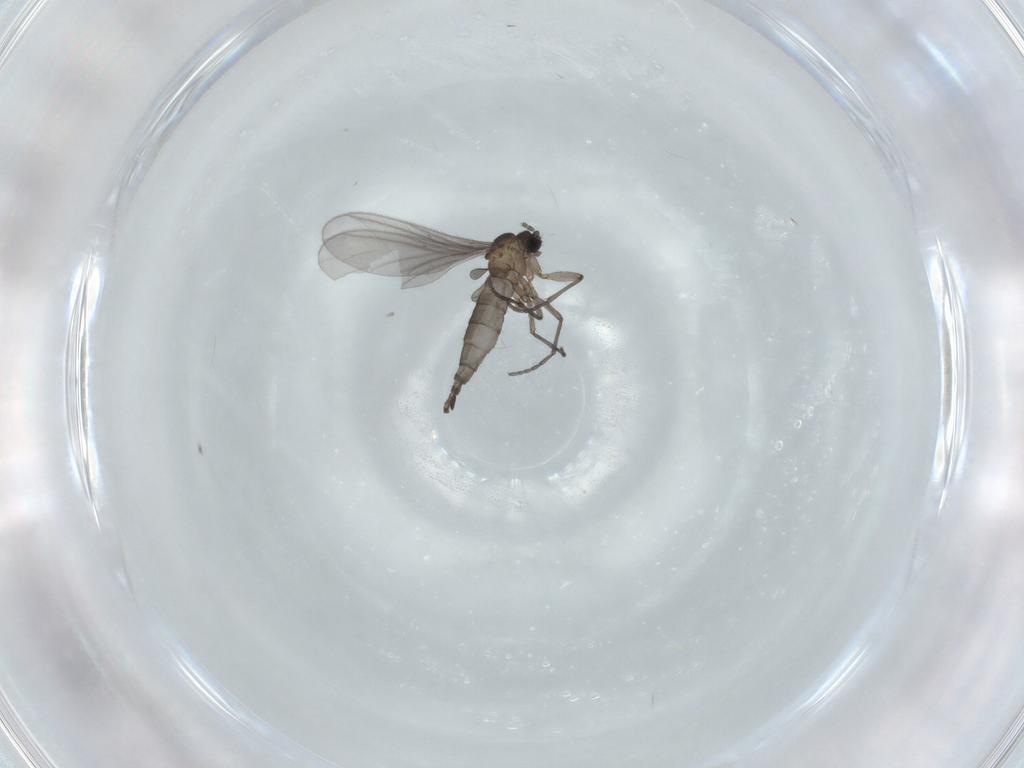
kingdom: Animalia
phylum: Arthropoda
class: Insecta
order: Diptera
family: Sciaridae
